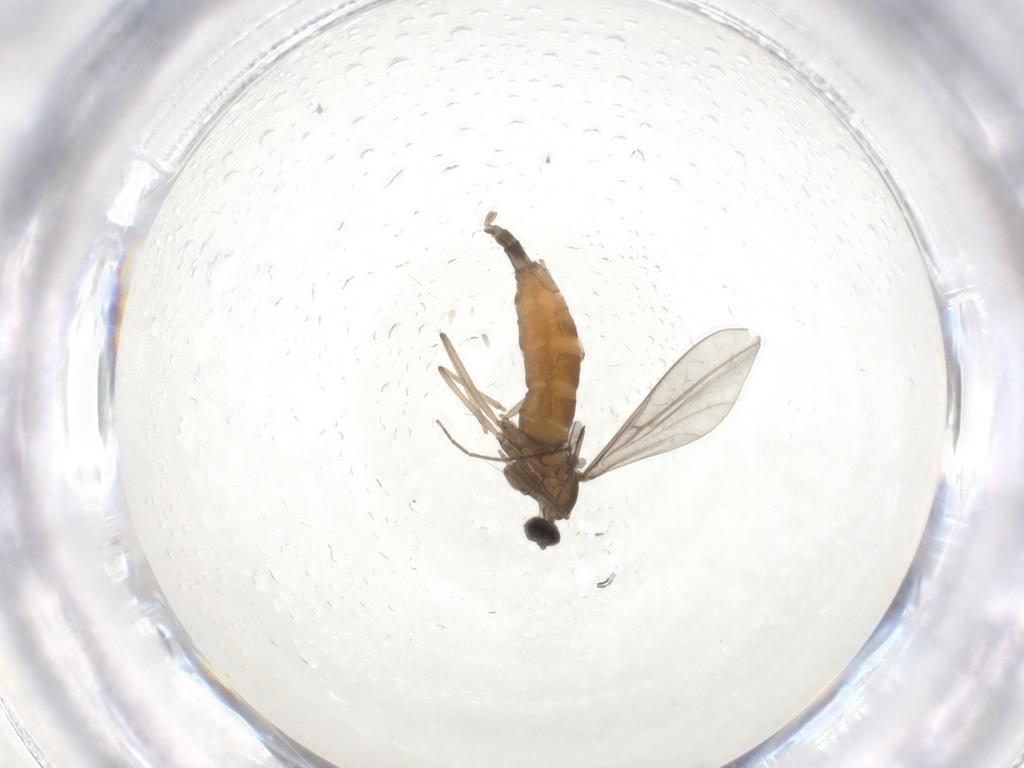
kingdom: Animalia
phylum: Arthropoda
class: Insecta
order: Diptera
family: Chironomidae
